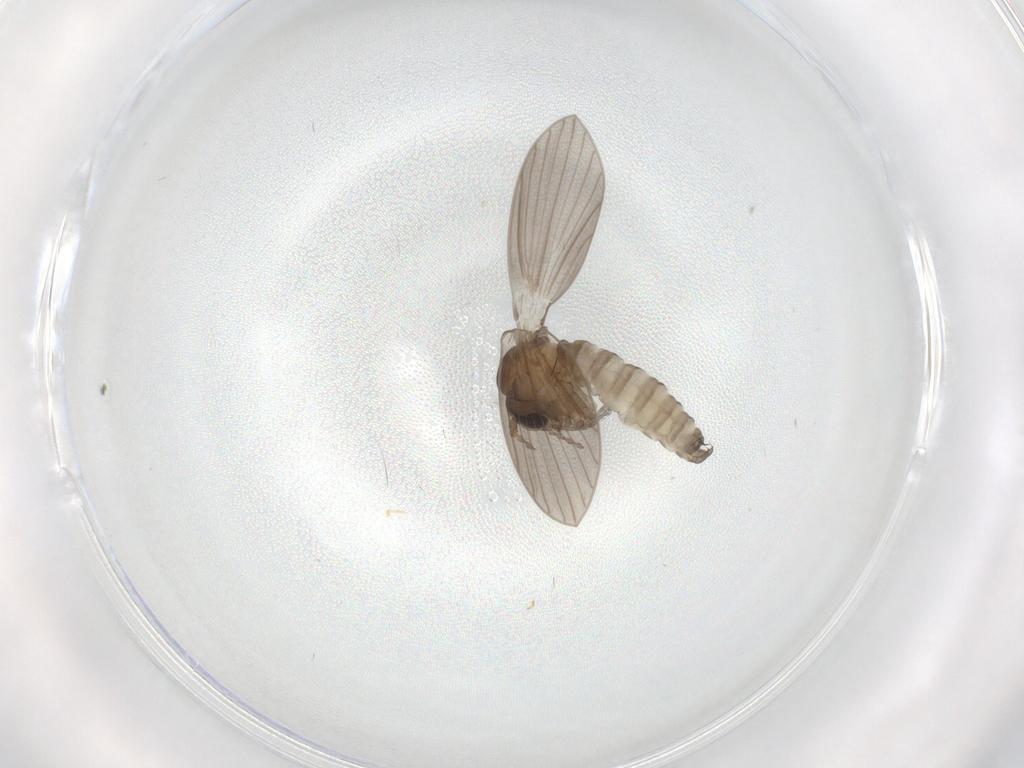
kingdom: Animalia
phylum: Arthropoda
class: Insecta
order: Diptera
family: Psychodidae
